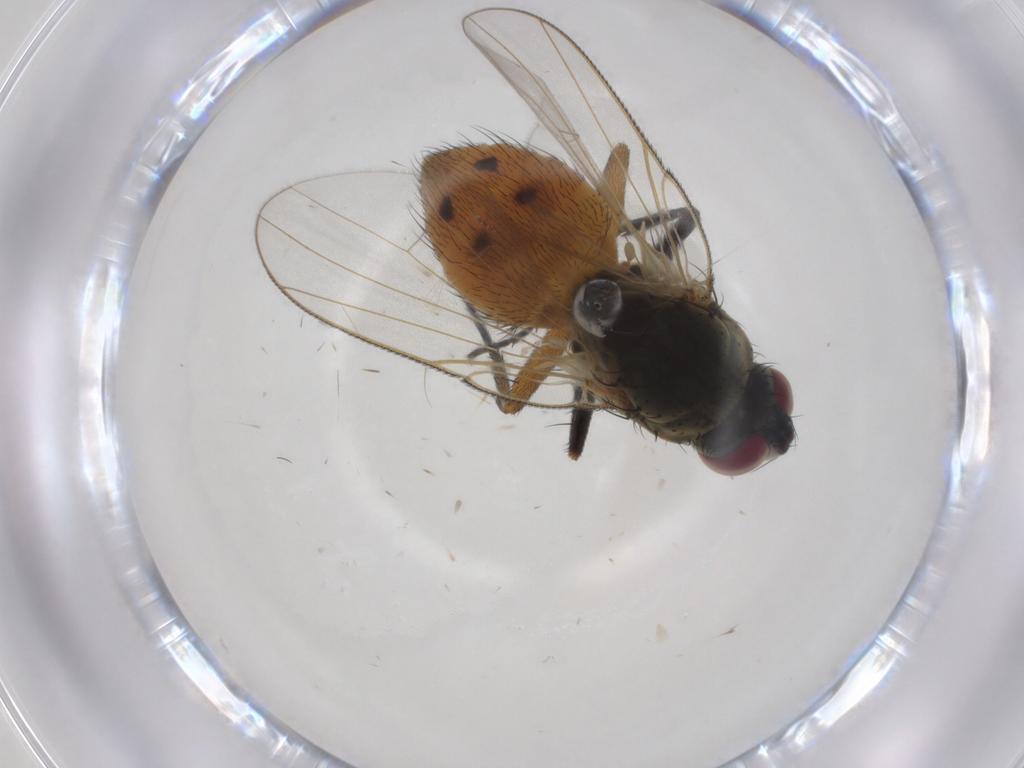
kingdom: Animalia
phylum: Arthropoda
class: Insecta
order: Diptera
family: Muscidae
